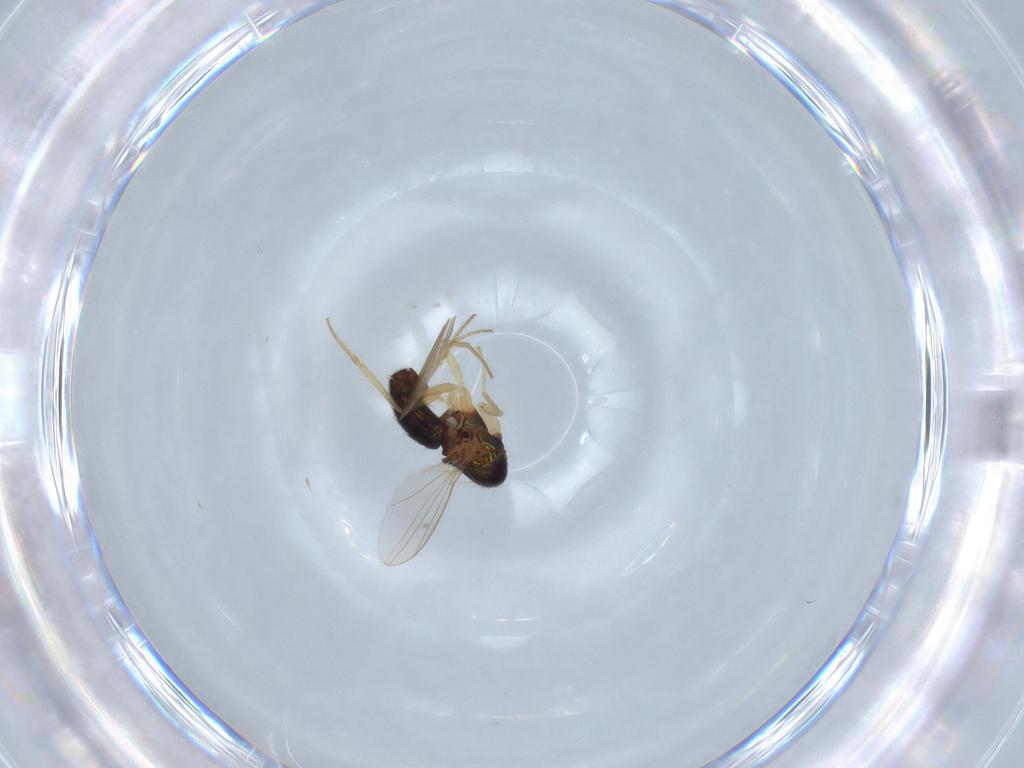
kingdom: Animalia
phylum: Arthropoda
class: Insecta
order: Diptera
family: Dolichopodidae
